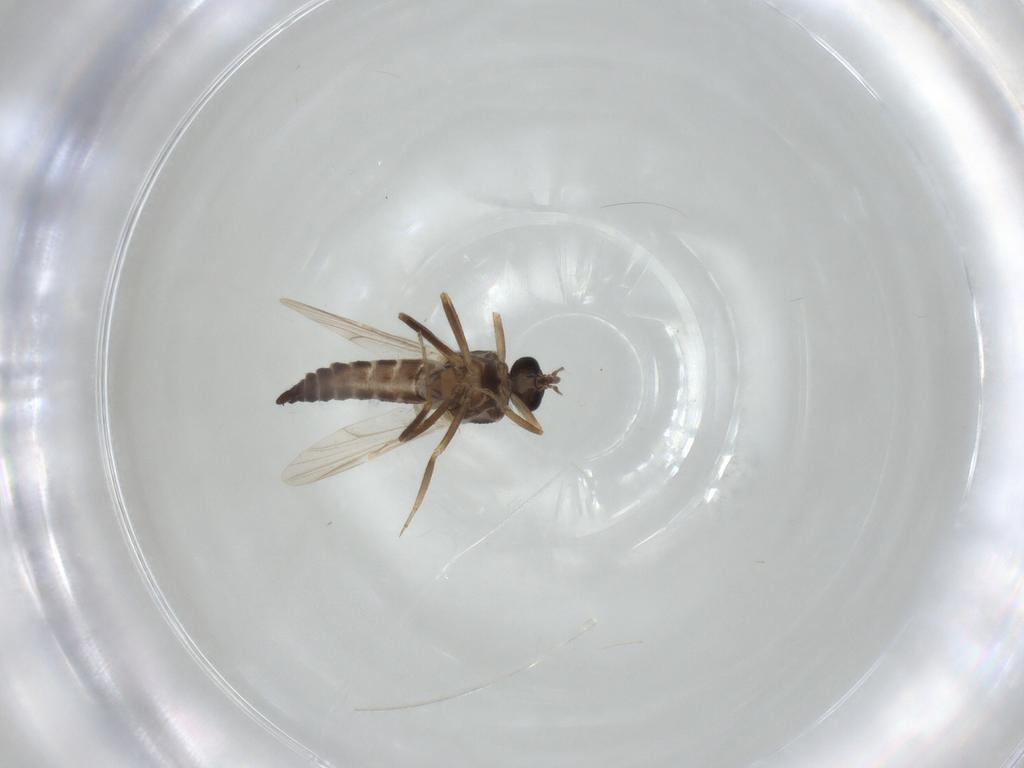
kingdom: Animalia
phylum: Arthropoda
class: Insecta
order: Diptera
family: Ceratopogonidae
